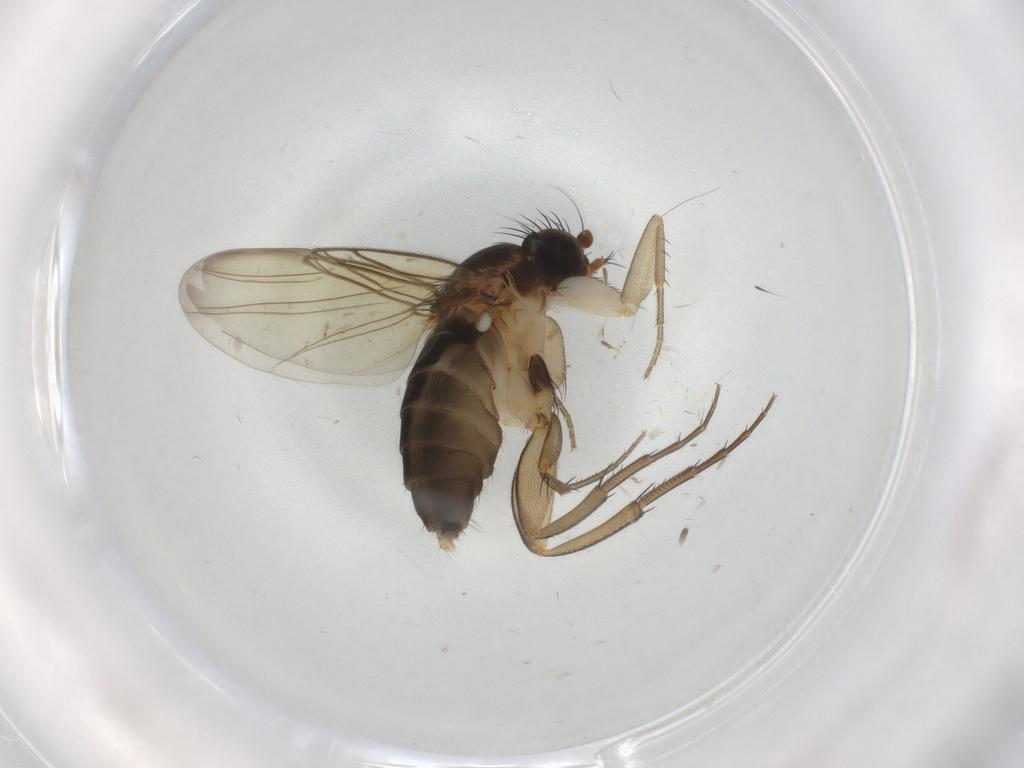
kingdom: Animalia
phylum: Arthropoda
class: Insecta
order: Diptera
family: Phoridae
